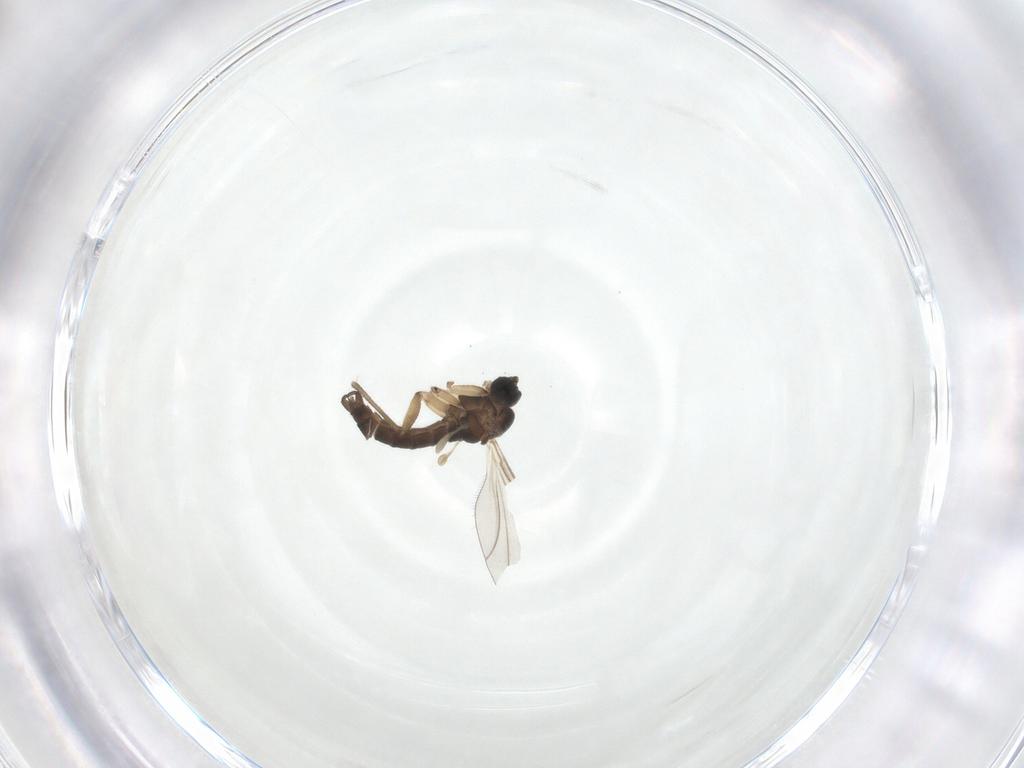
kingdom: Animalia
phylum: Arthropoda
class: Insecta
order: Diptera
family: Sciaridae
